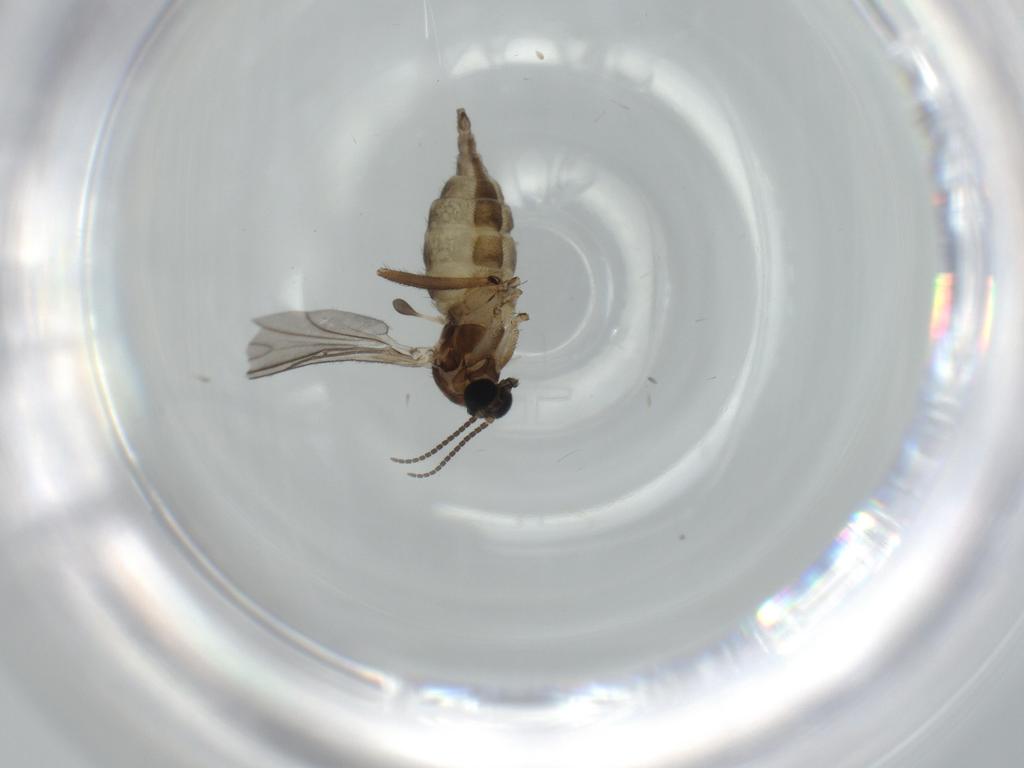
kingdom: Animalia
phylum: Arthropoda
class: Insecta
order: Diptera
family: Sciaridae
